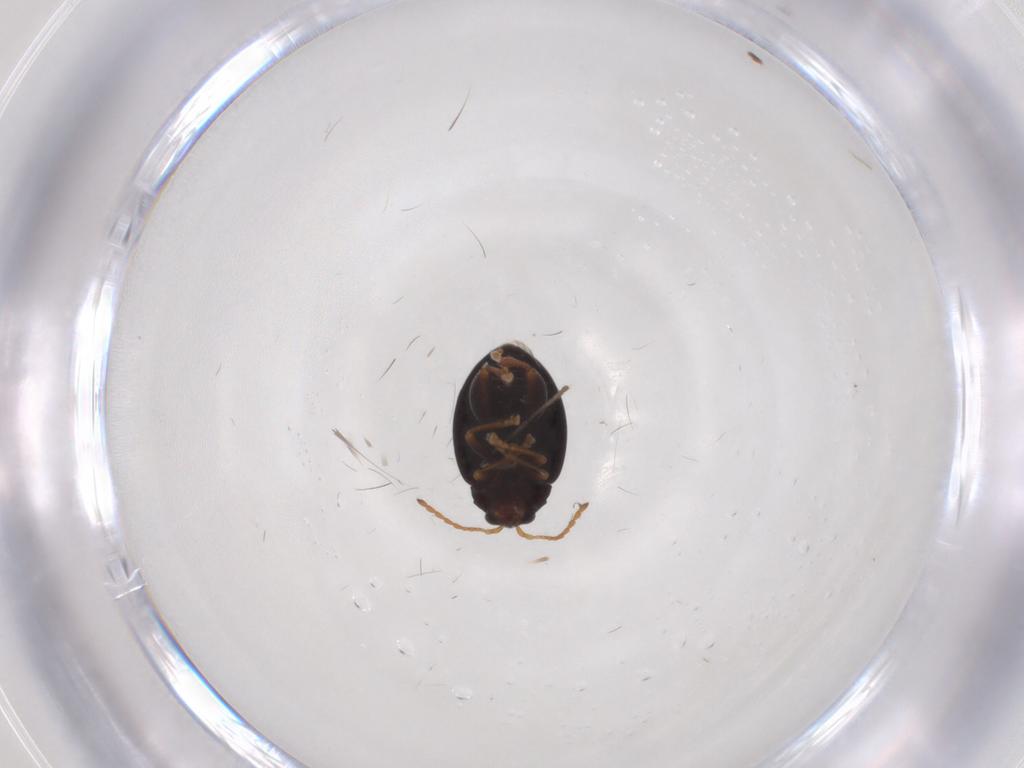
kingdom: Animalia
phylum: Arthropoda
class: Insecta
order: Coleoptera
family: Chrysomelidae
